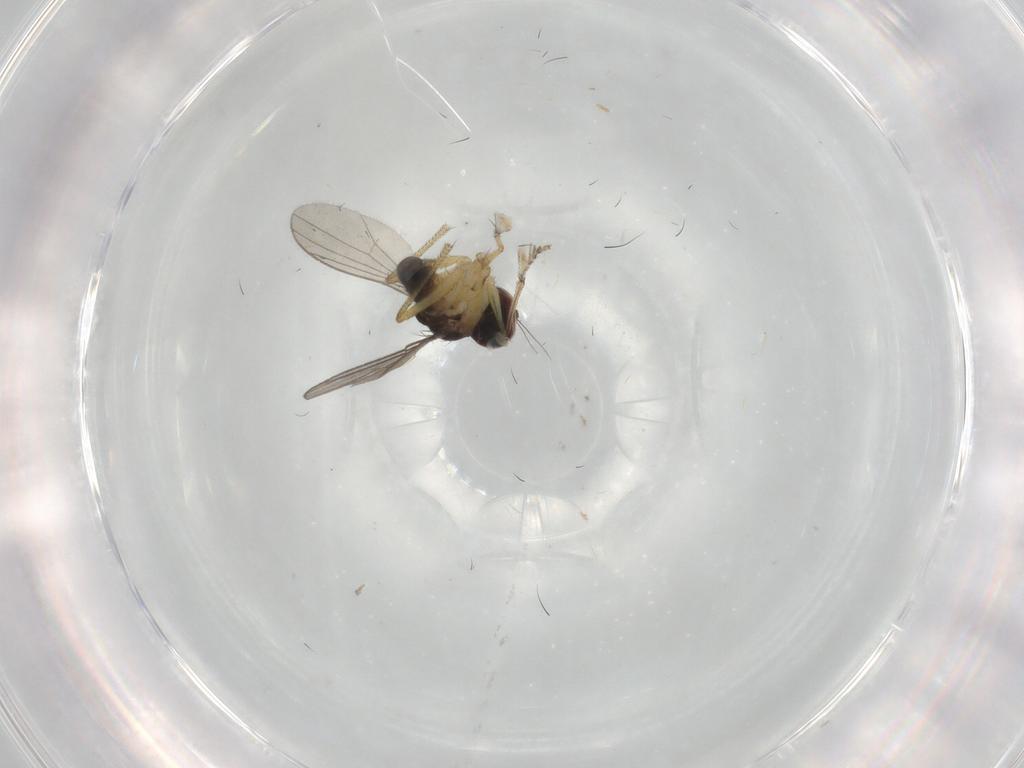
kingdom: Animalia
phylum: Arthropoda
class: Insecta
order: Diptera
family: Dolichopodidae
